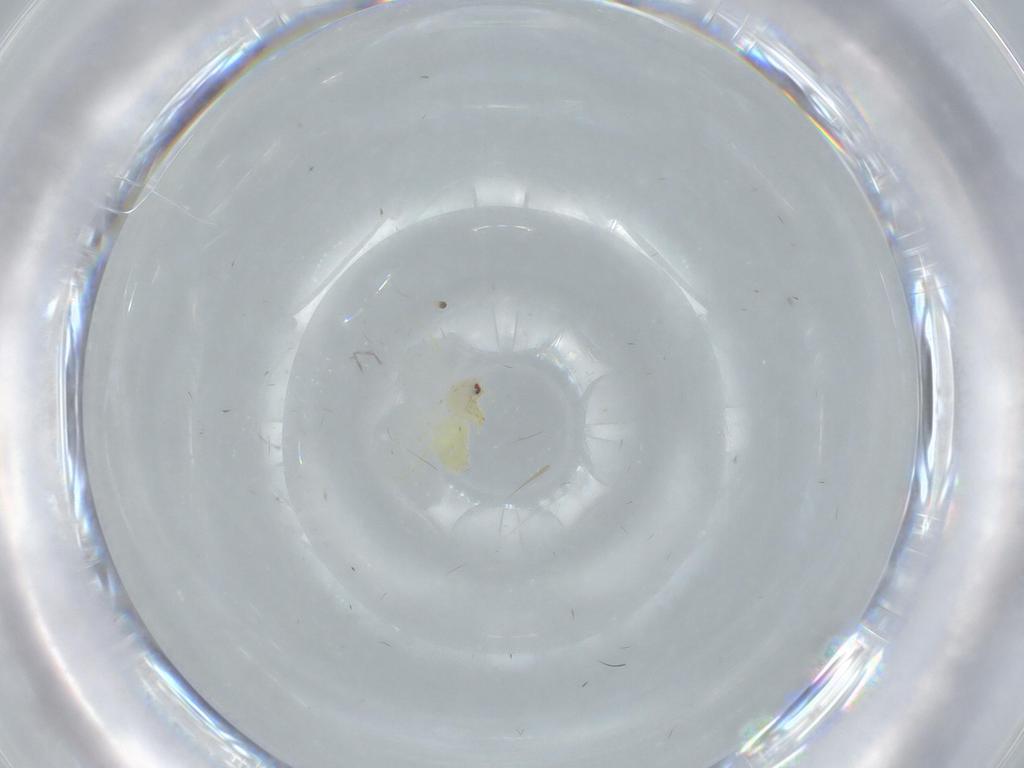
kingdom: Animalia
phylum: Arthropoda
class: Insecta
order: Hemiptera
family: Aleyrodidae
